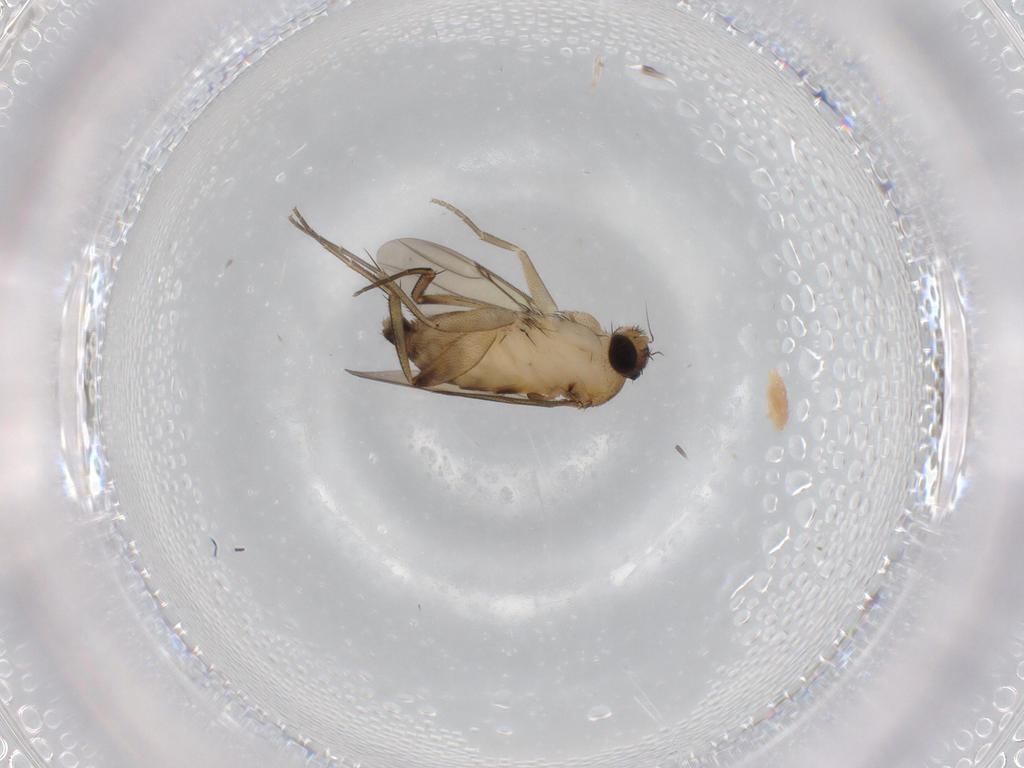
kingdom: Animalia
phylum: Arthropoda
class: Insecta
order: Diptera
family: Phoridae
